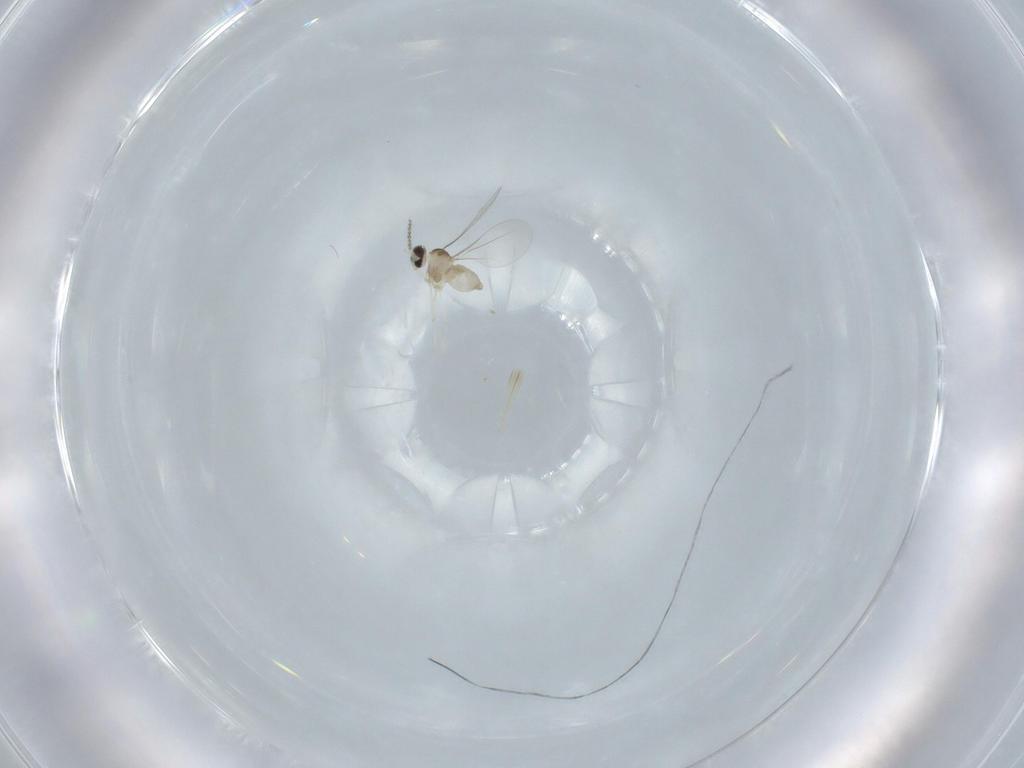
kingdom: Animalia
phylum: Arthropoda
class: Insecta
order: Diptera
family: Cecidomyiidae
